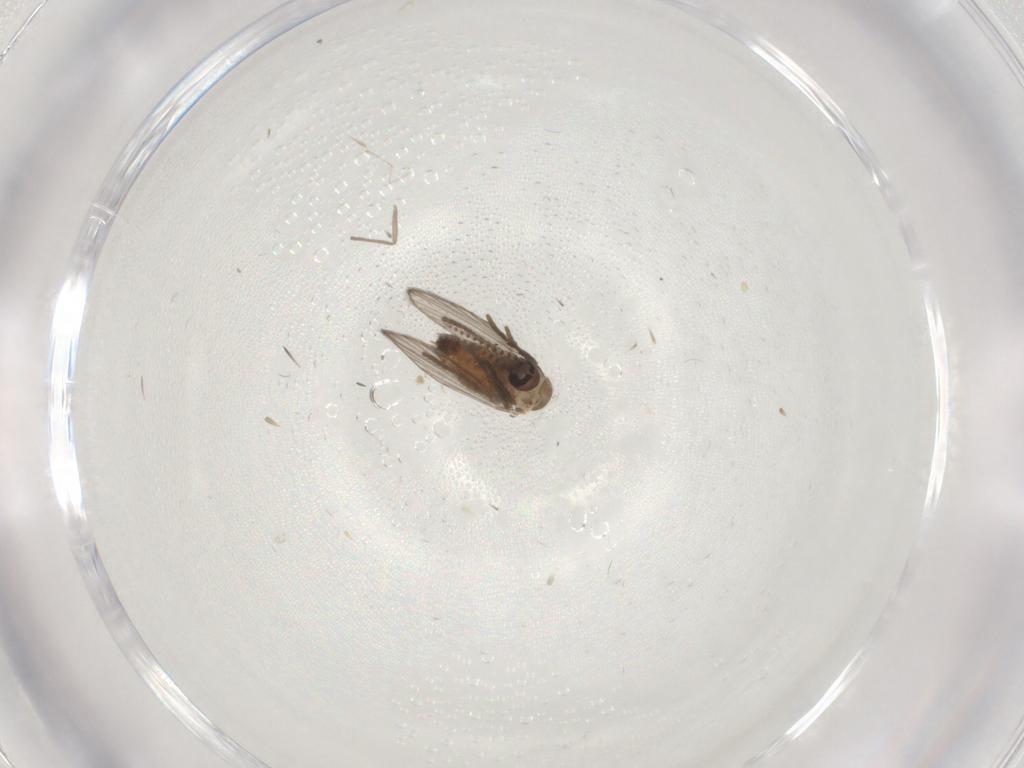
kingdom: Animalia
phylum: Arthropoda
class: Insecta
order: Diptera
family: Psychodidae
